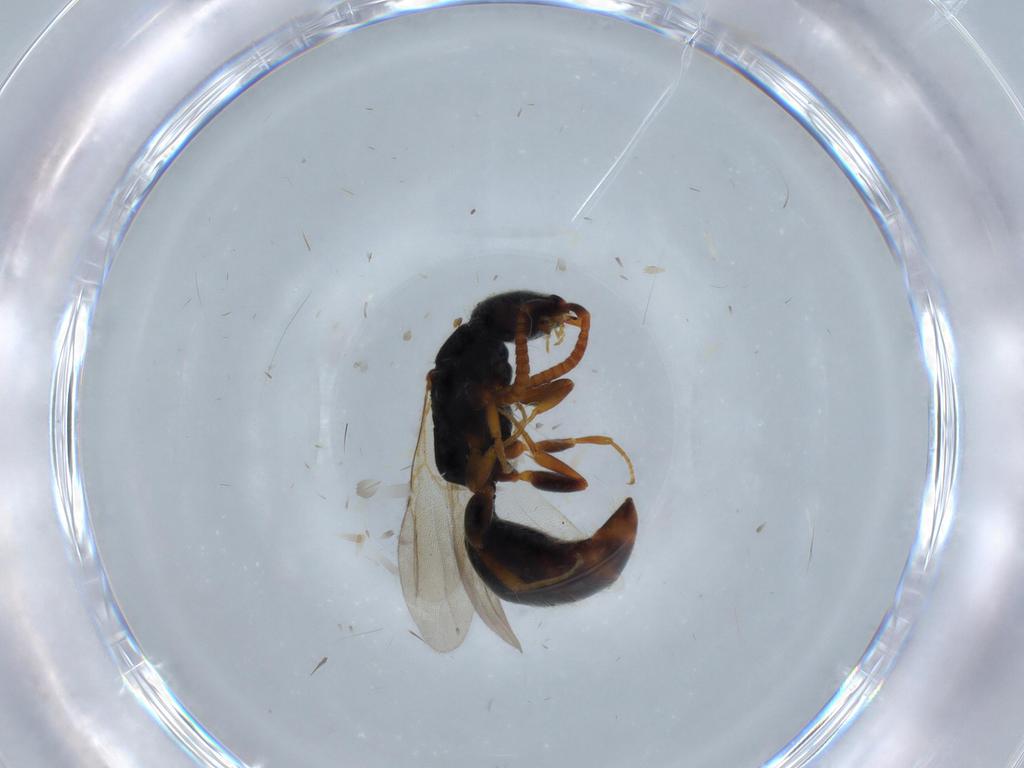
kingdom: Animalia
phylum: Arthropoda
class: Insecta
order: Hymenoptera
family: Bethylidae
